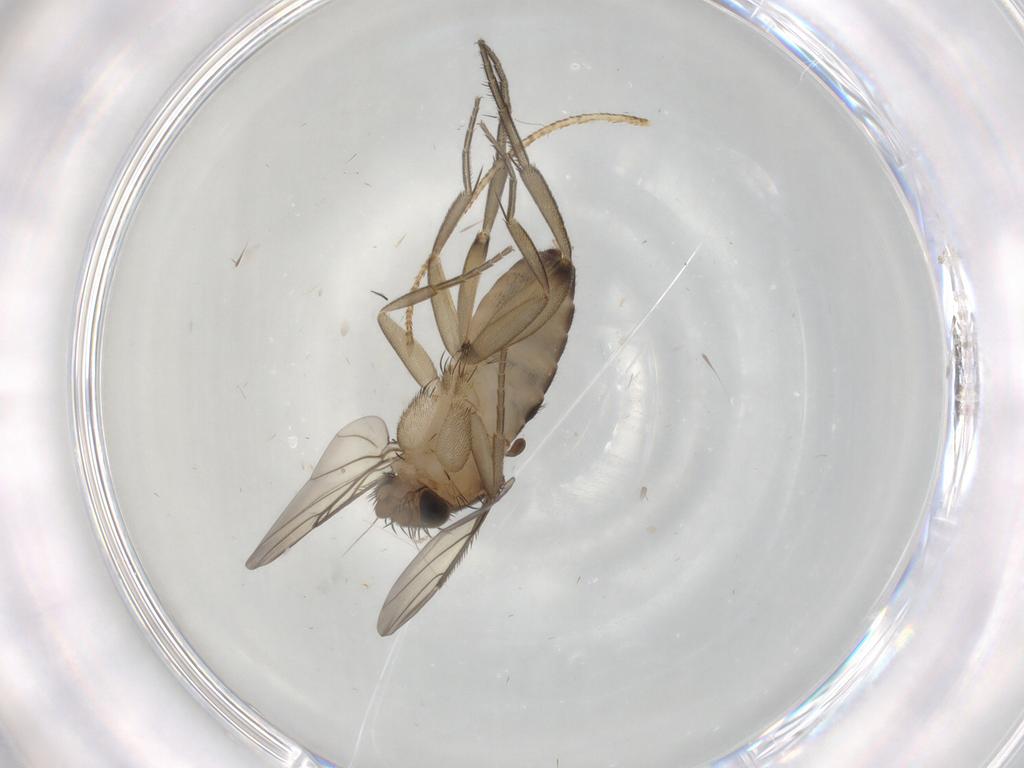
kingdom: Animalia
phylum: Arthropoda
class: Insecta
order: Diptera
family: Phoridae
